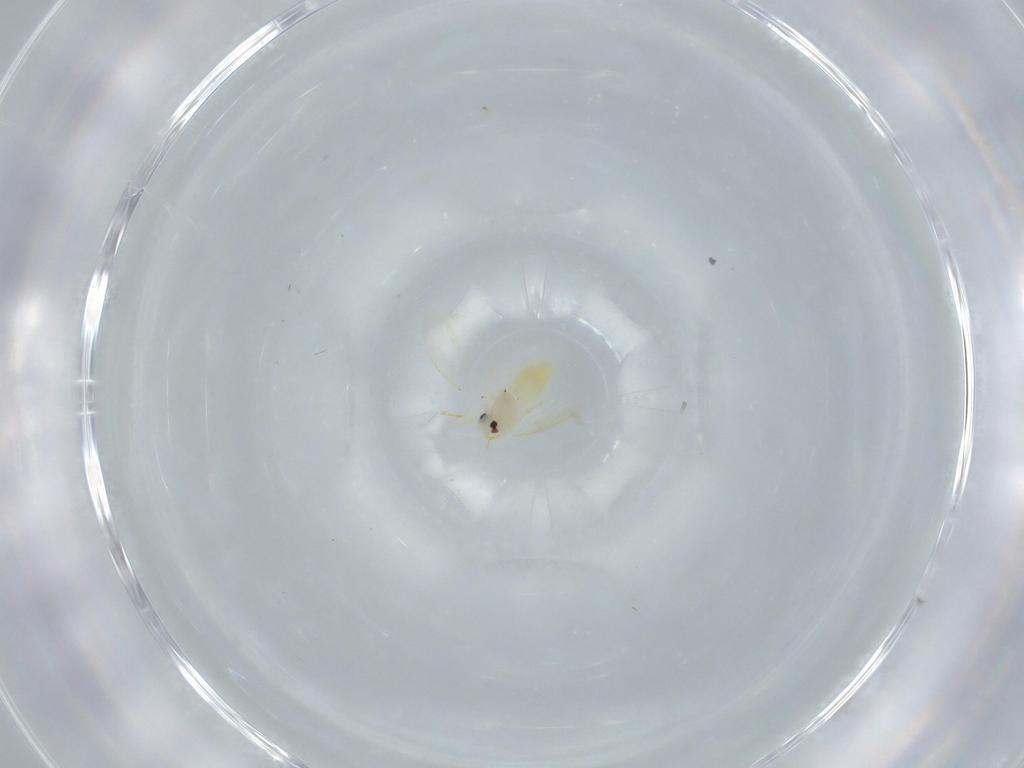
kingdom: Animalia
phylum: Arthropoda
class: Insecta
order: Hemiptera
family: Aleyrodidae
